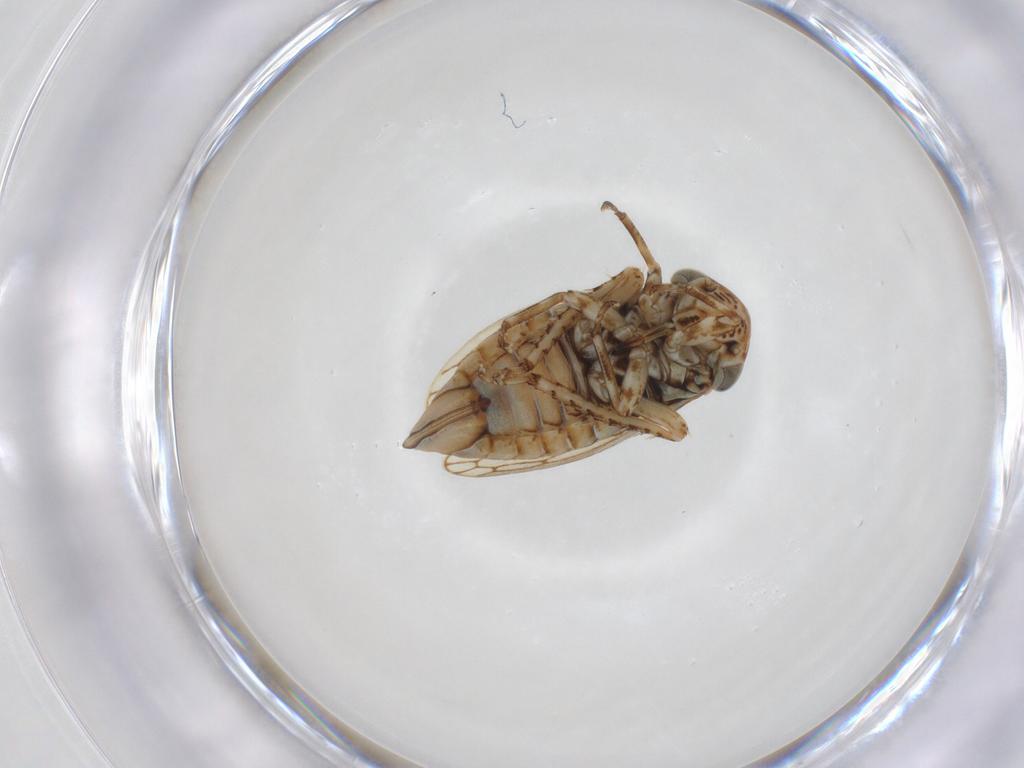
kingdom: Animalia
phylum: Arthropoda
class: Insecta
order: Hemiptera
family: Cicadellidae
